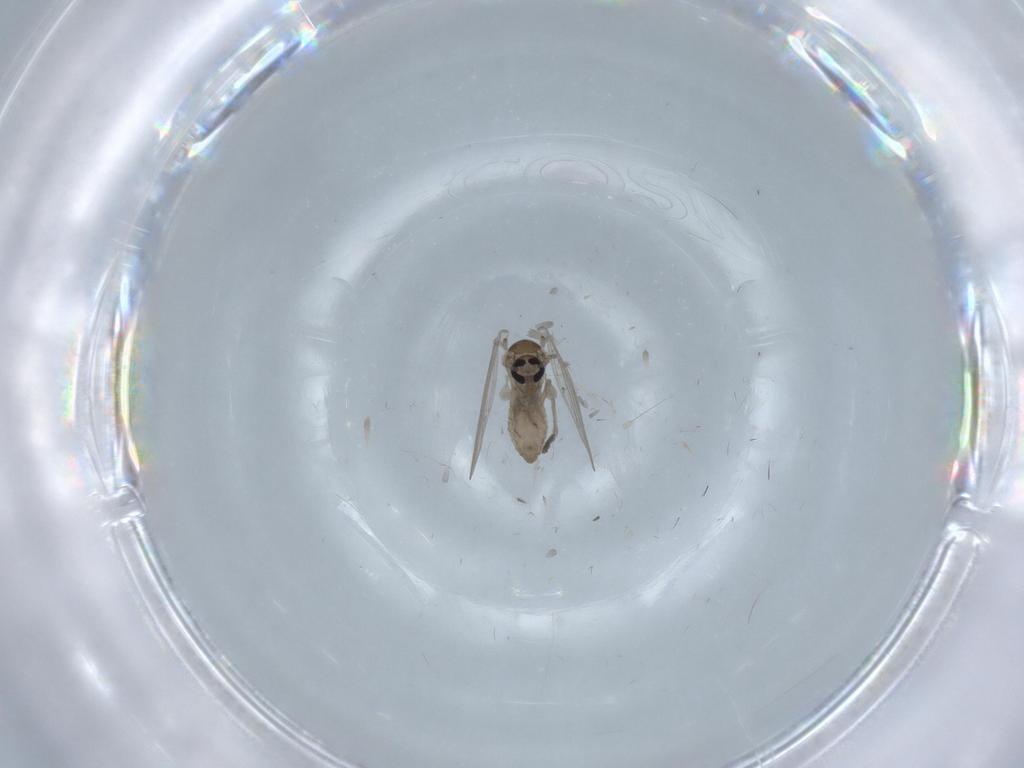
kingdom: Animalia
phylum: Arthropoda
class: Insecta
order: Diptera
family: Psychodidae
